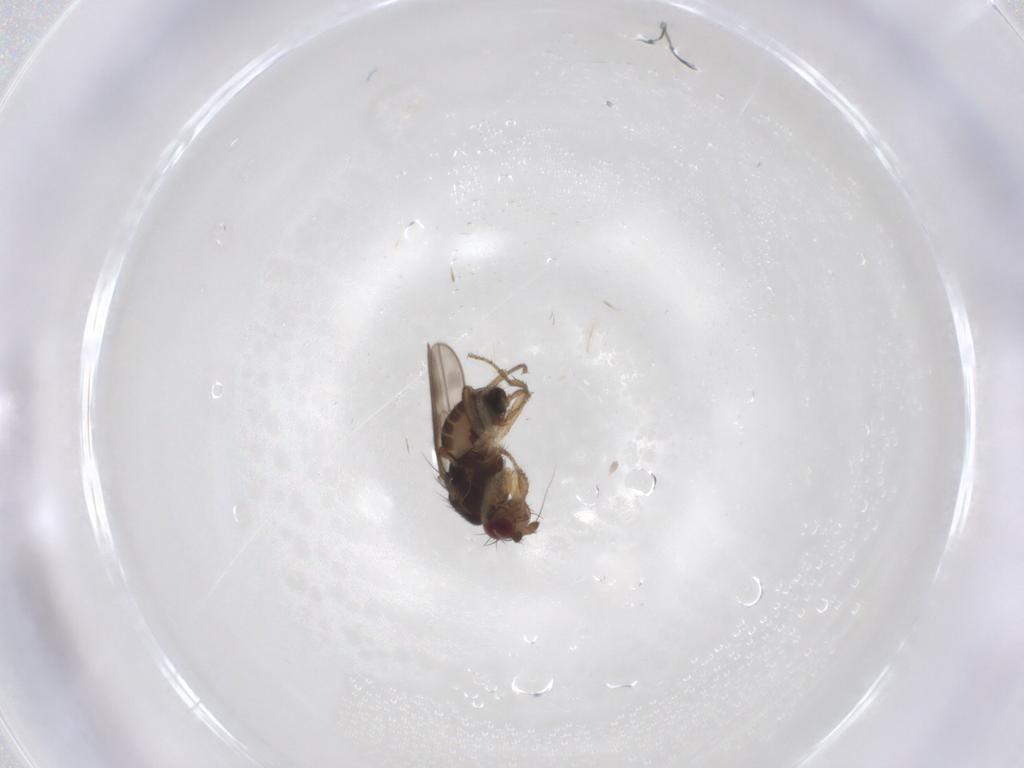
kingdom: Animalia
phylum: Arthropoda
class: Insecta
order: Diptera
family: Sphaeroceridae
